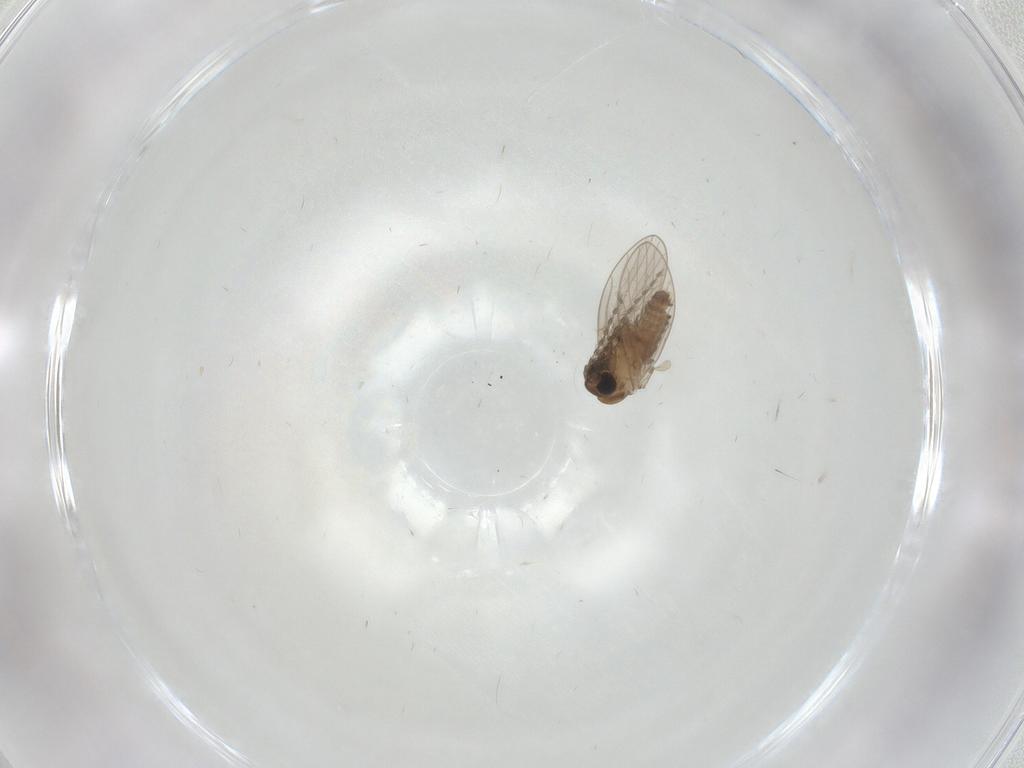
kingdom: Animalia
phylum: Arthropoda
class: Insecta
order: Diptera
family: Psychodidae
